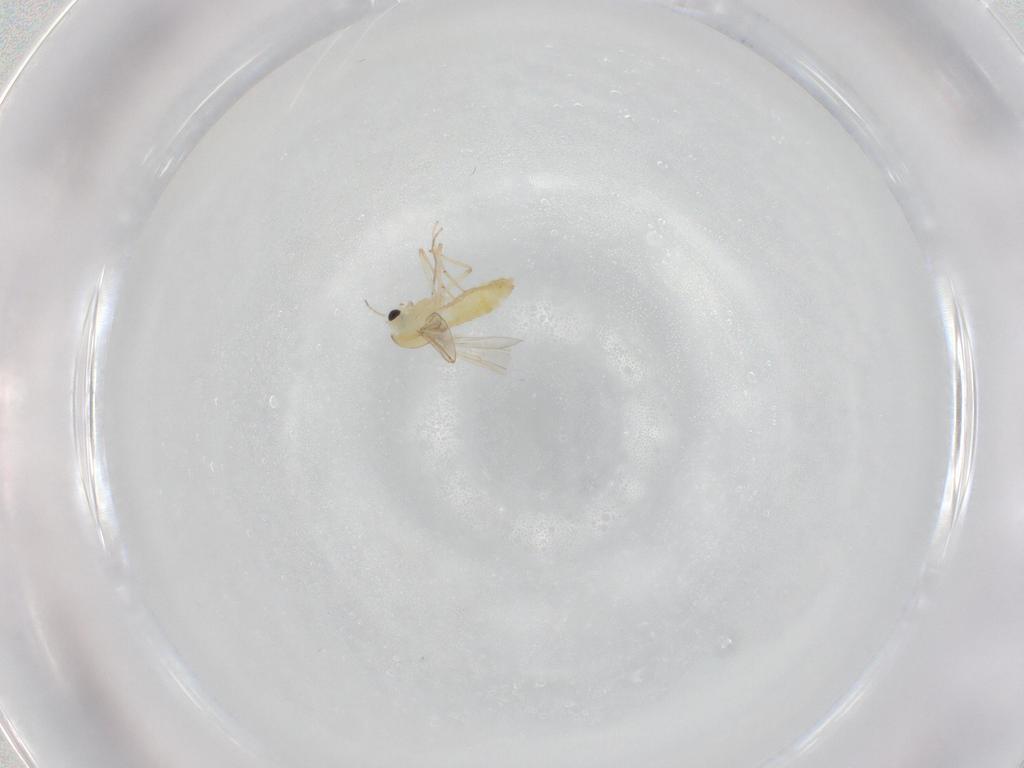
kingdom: Animalia
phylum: Arthropoda
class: Insecta
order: Diptera
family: Chironomidae
